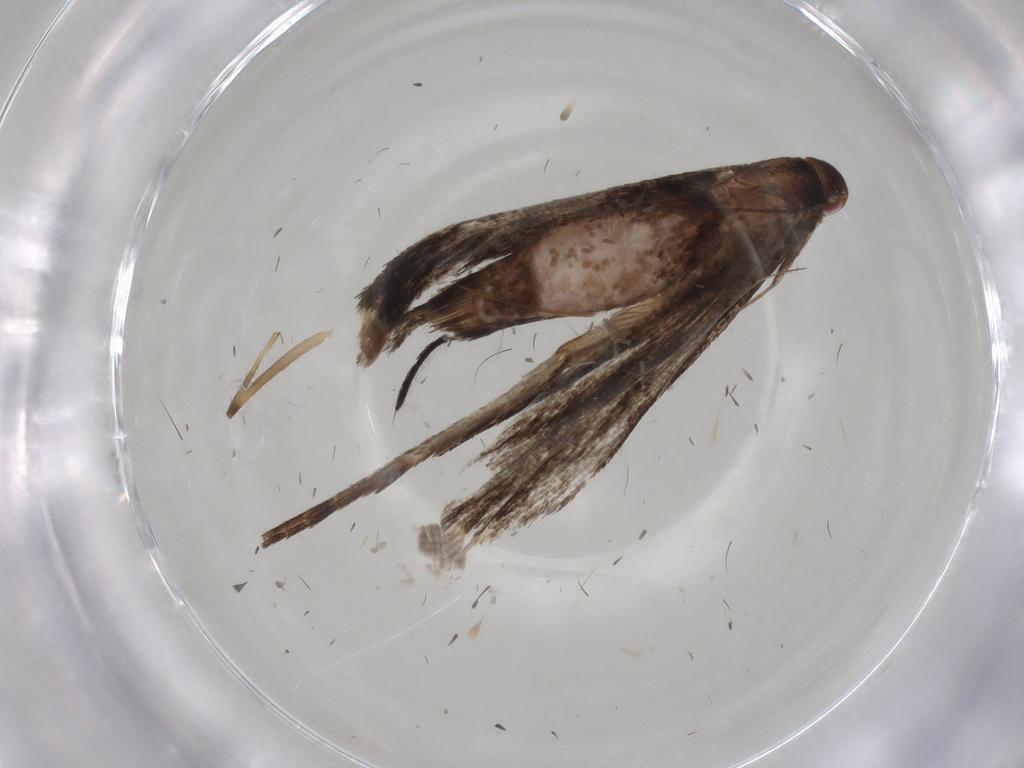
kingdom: Animalia
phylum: Arthropoda
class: Insecta
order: Lepidoptera
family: Gelechiidae
